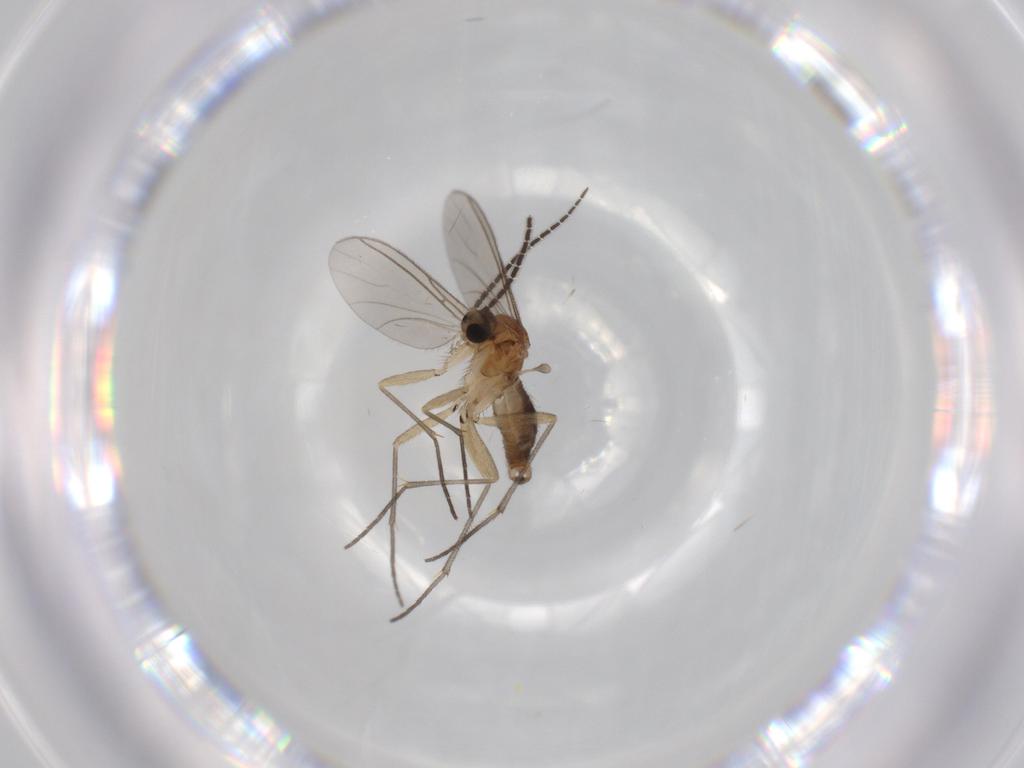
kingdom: Animalia
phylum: Arthropoda
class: Insecta
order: Diptera
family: Sciaridae
